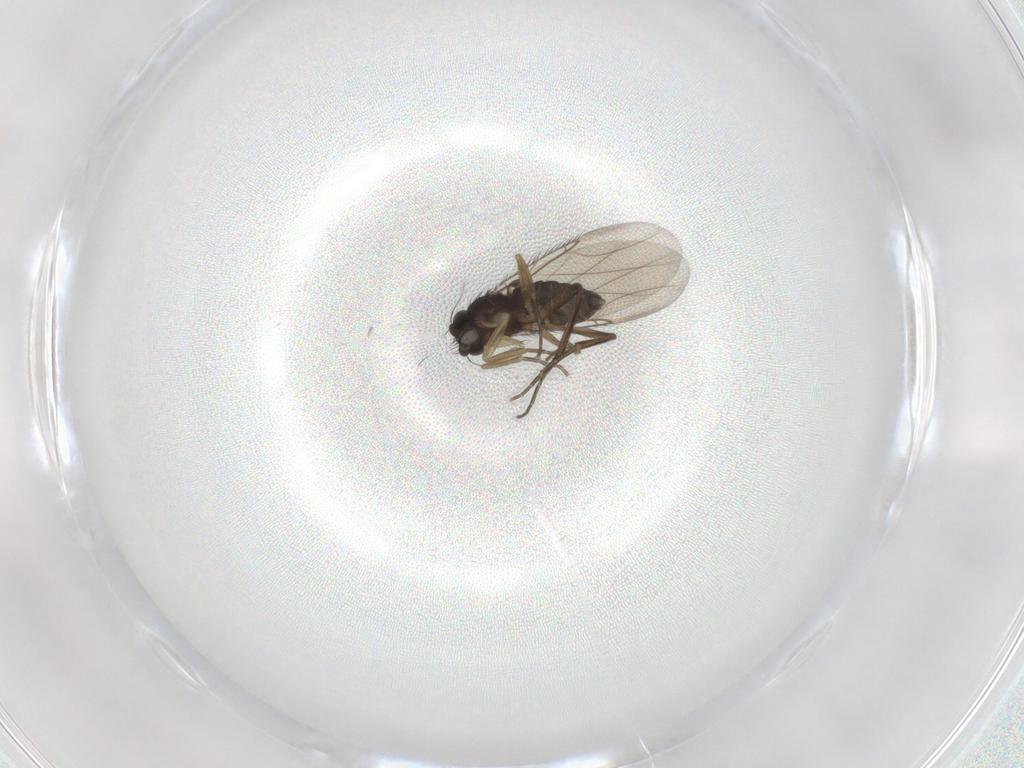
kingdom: Animalia
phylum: Arthropoda
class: Insecta
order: Diptera
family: Phoridae
